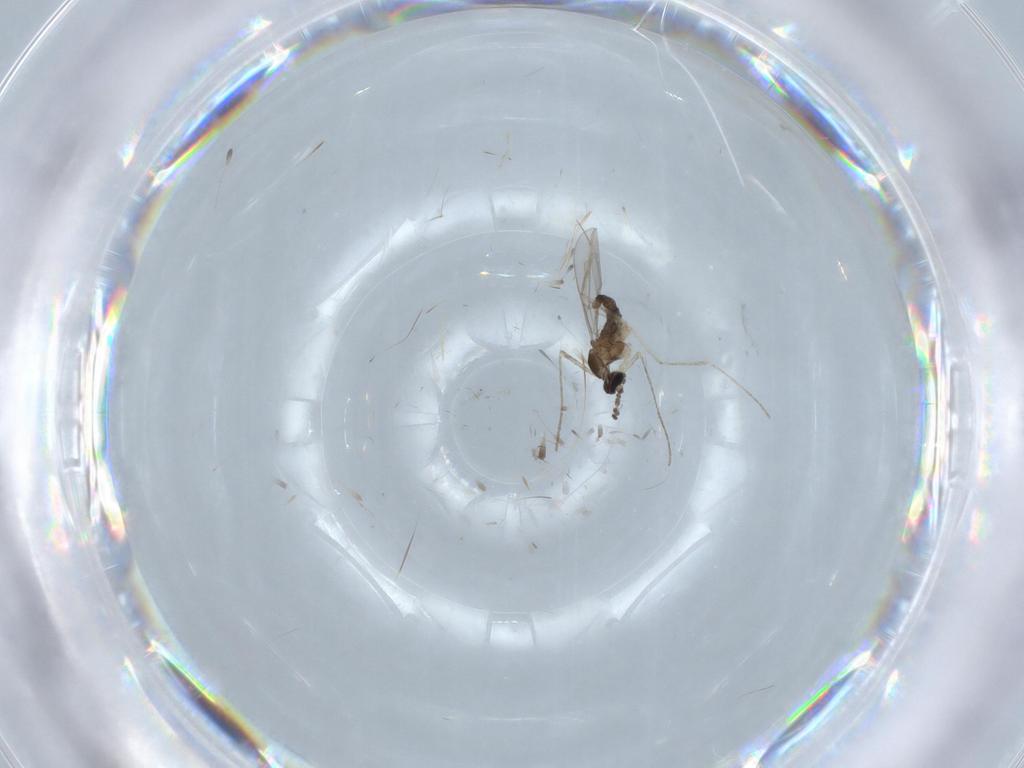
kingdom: Animalia
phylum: Arthropoda
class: Insecta
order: Diptera
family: Cecidomyiidae
